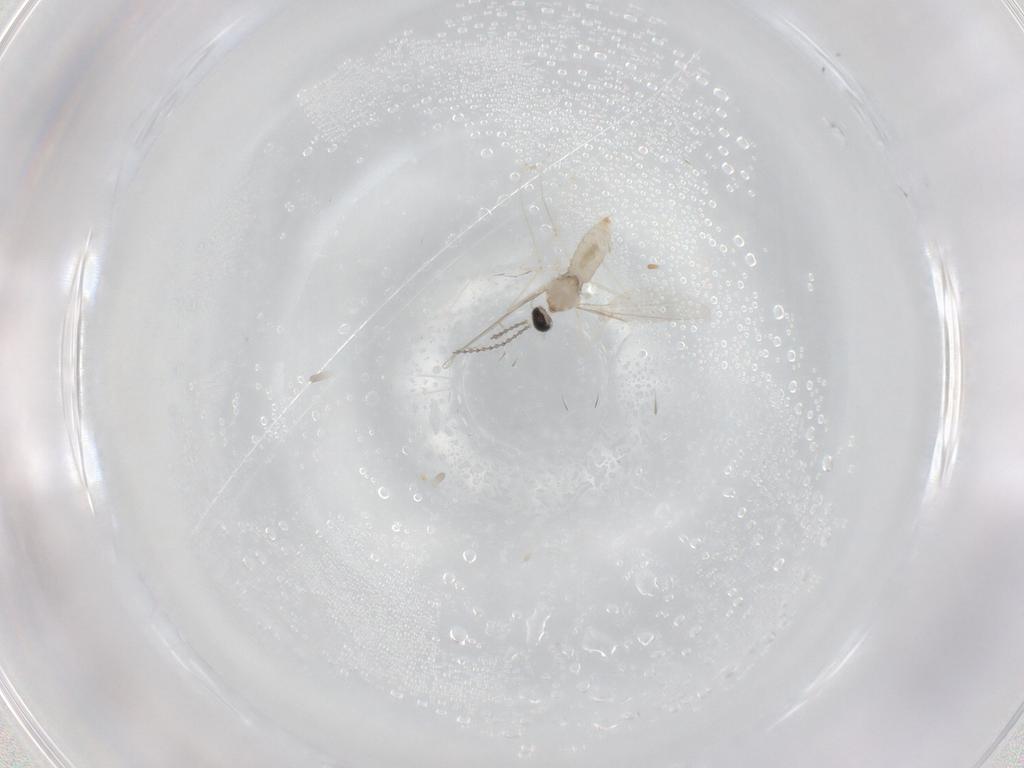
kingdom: Animalia
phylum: Arthropoda
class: Insecta
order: Diptera
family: Cecidomyiidae
